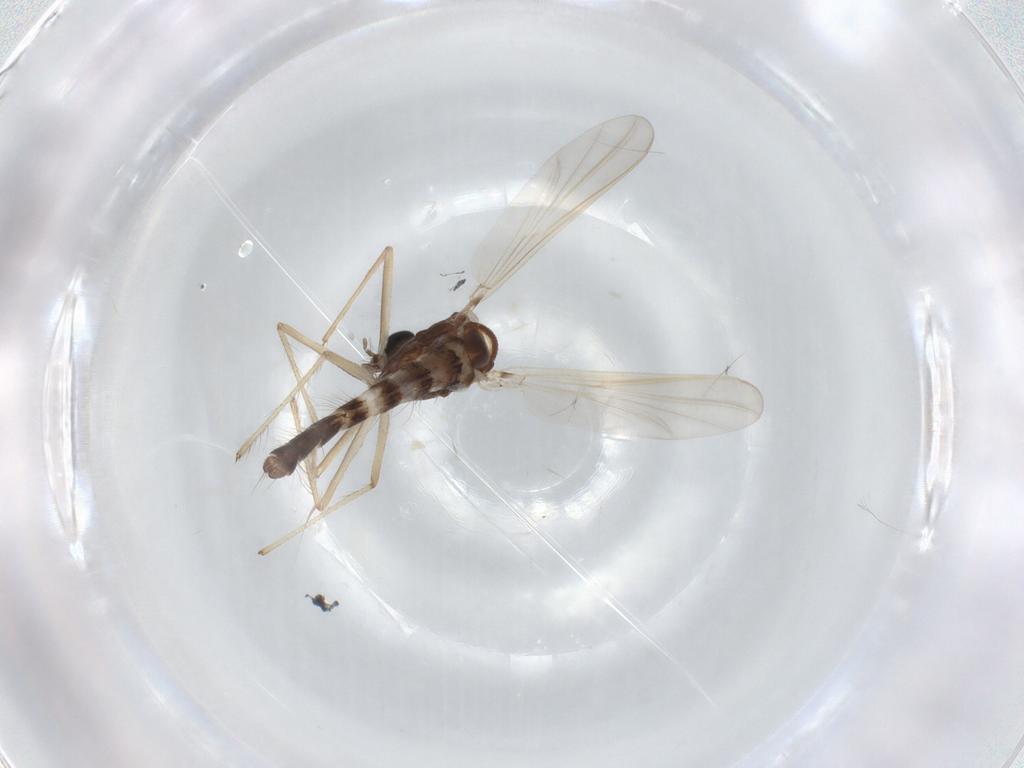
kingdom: Animalia
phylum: Arthropoda
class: Insecta
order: Diptera
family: Chironomidae
